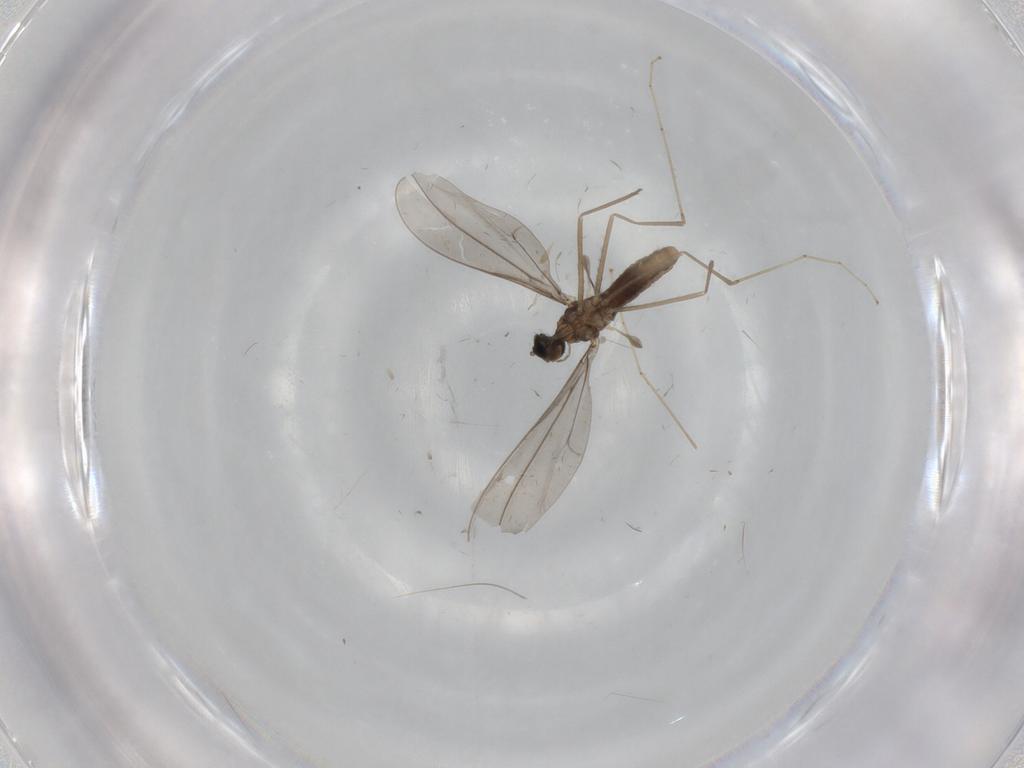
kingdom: Animalia
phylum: Arthropoda
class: Insecta
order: Diptera
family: Cecidomyiidae
